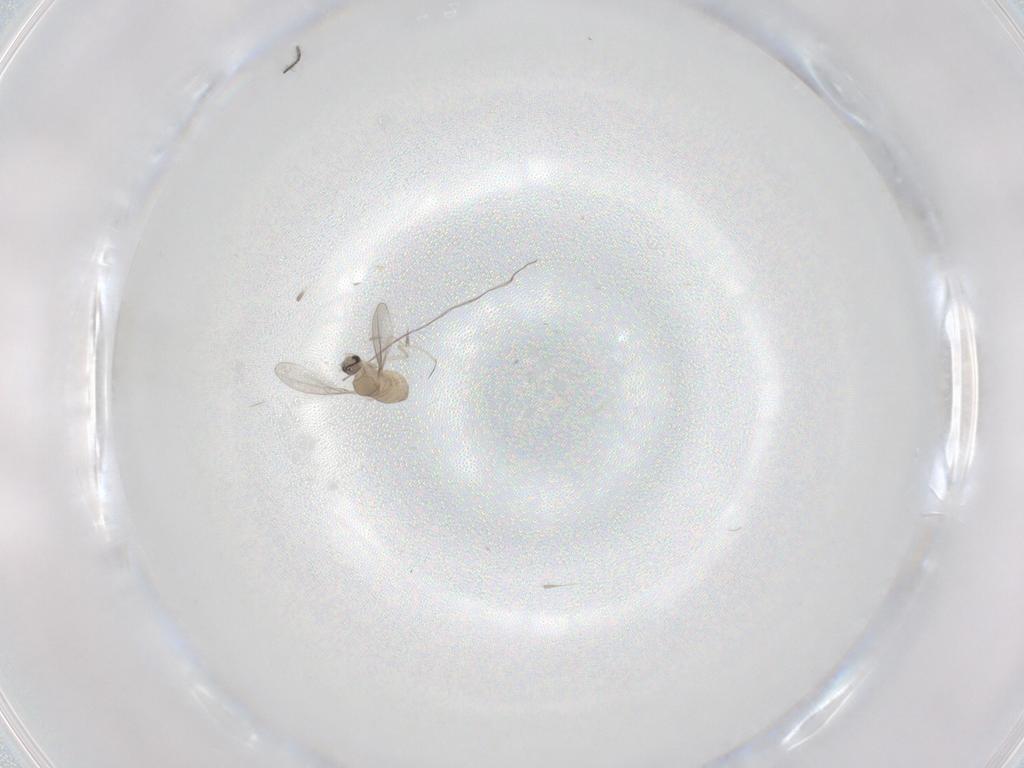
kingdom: Animalia
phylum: Arthropoda
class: Insecta
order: Diptera
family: Cecidomyiidae
